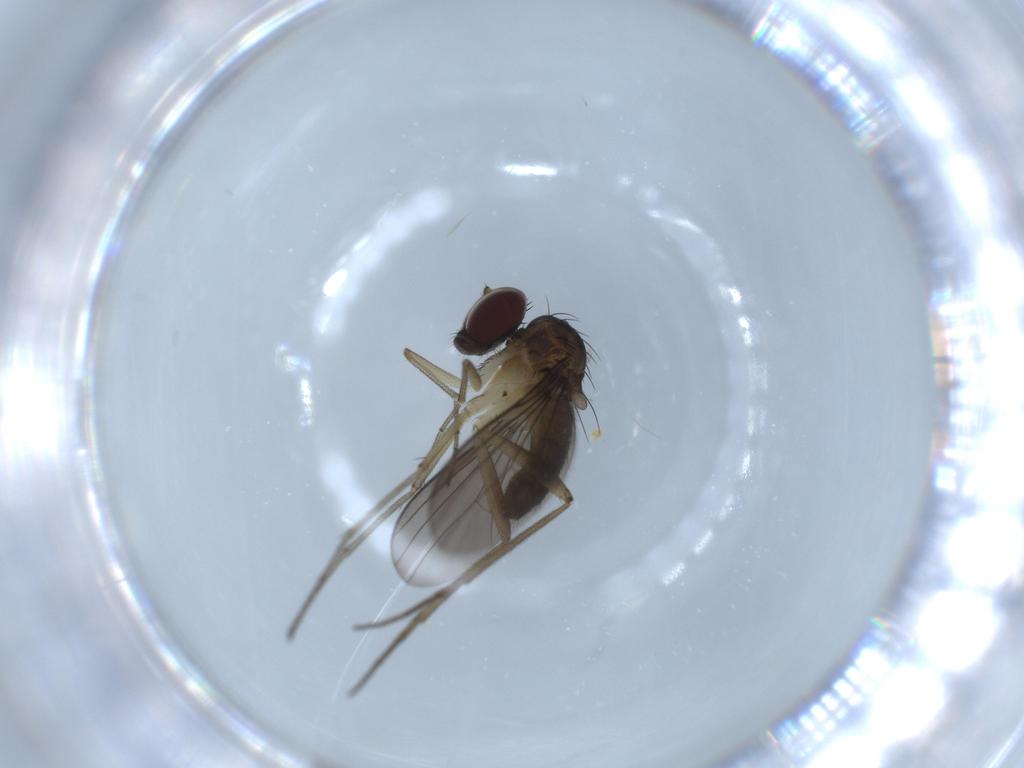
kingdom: Animalia
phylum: Arthropoda
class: Insecta
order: Diptera
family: Dolichopodidae
